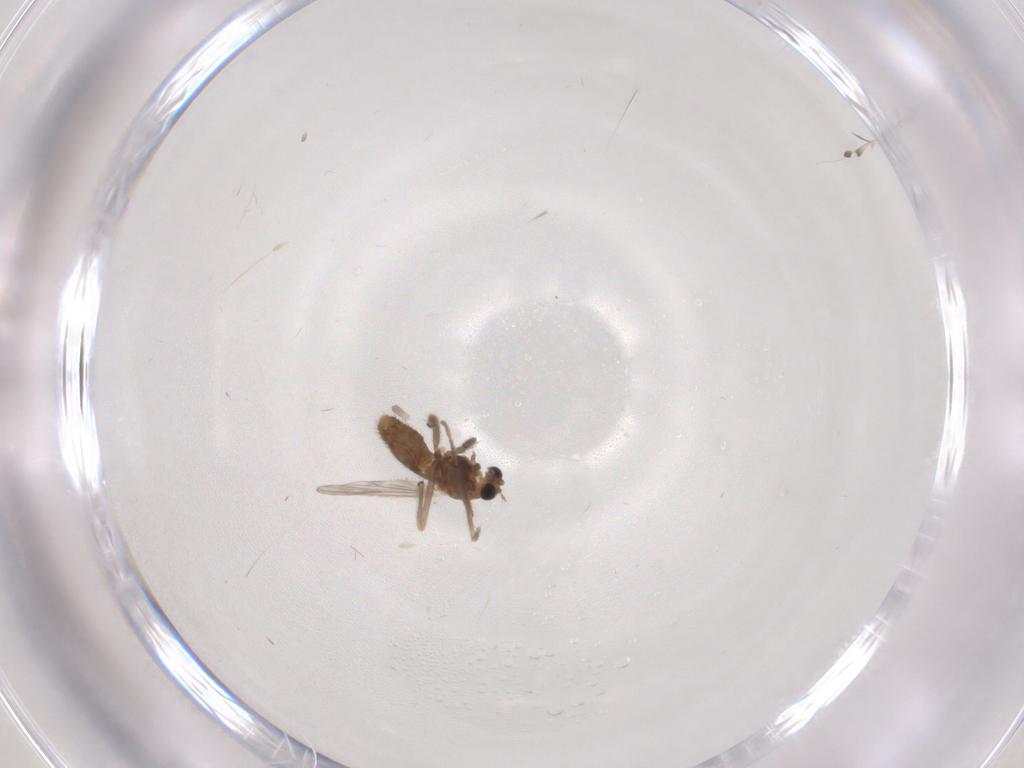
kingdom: Animalia
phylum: Arthropoda
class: Insecta
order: Diptera
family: Chironomidae
